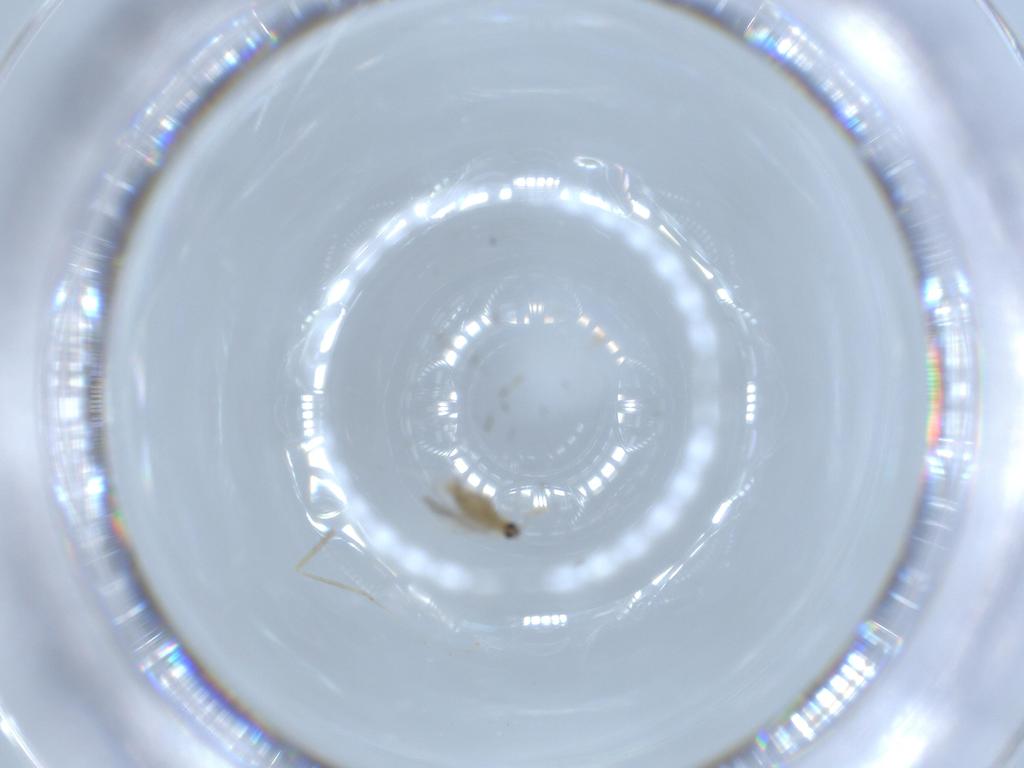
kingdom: Animalia
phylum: Arthropoda
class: Insecta
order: Diptera
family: Cecidomyiidae
